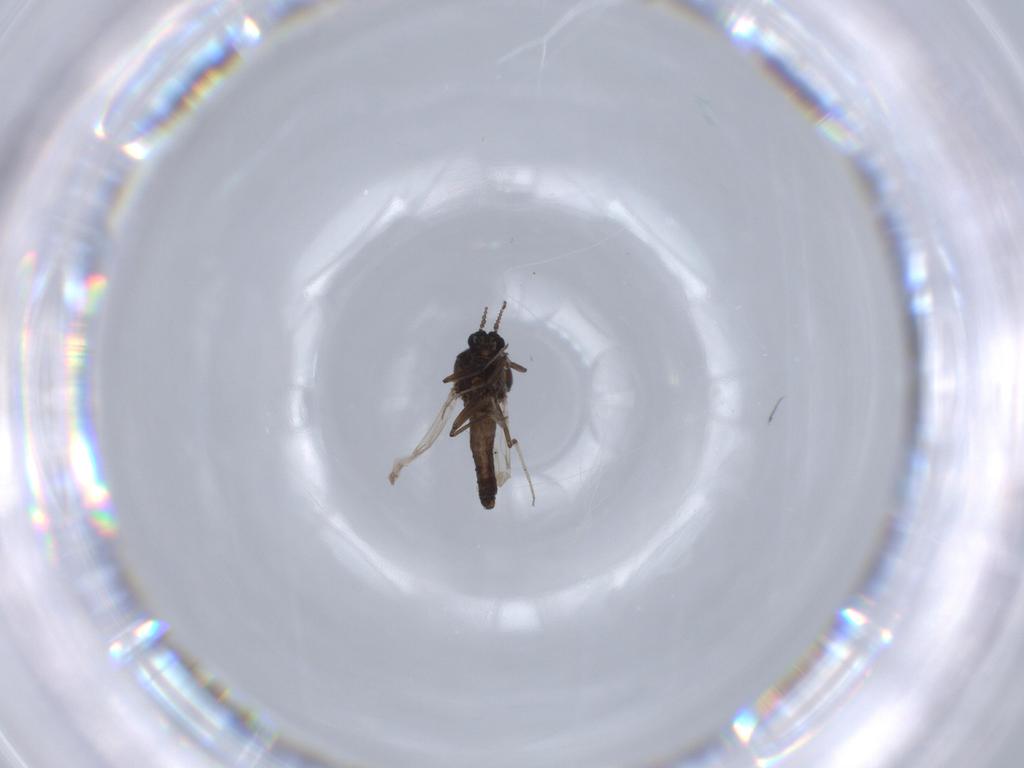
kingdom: Animalia
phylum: Arthropoda
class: Insecta
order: Diptera
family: Ceratopogonidae
